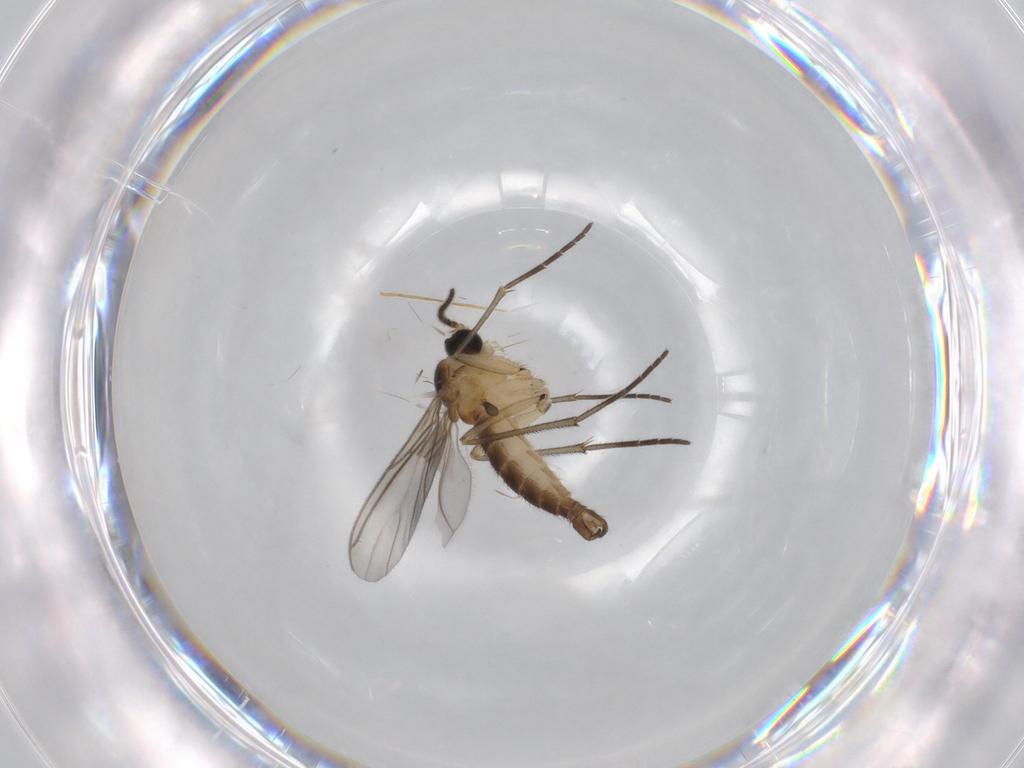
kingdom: Animalia
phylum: Arthropoda
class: Insecta
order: Diptera
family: Sciaridae
